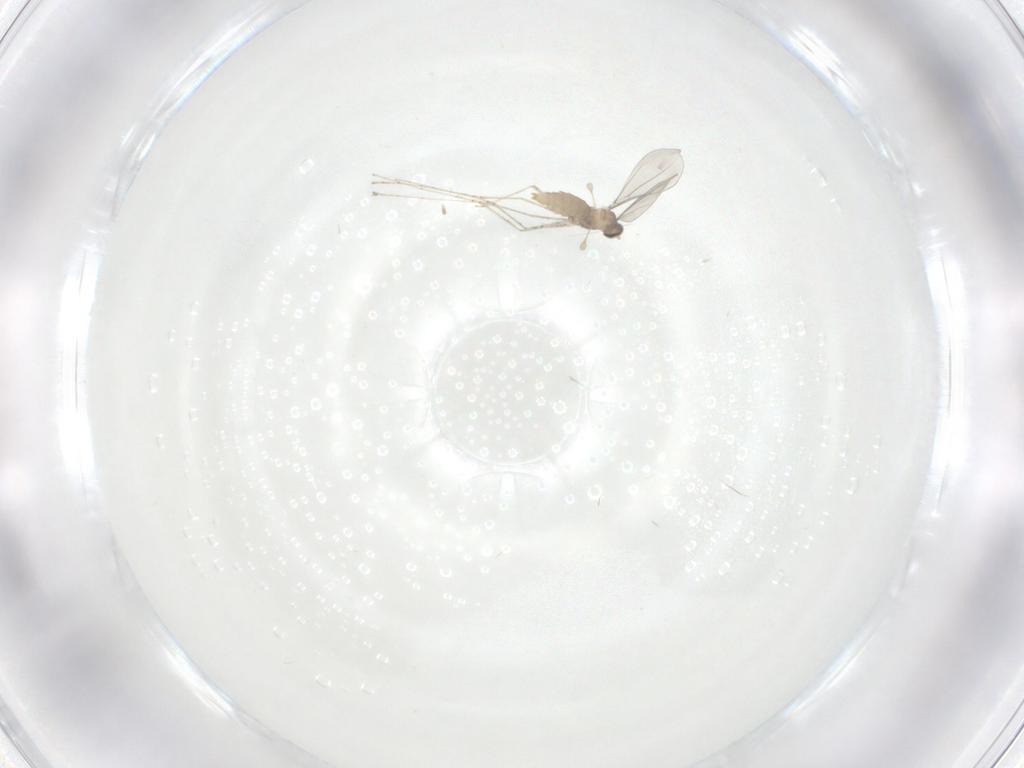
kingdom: Animalia
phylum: Arthropoda
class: Insecta
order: Diptera
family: Cecidomyiidae
